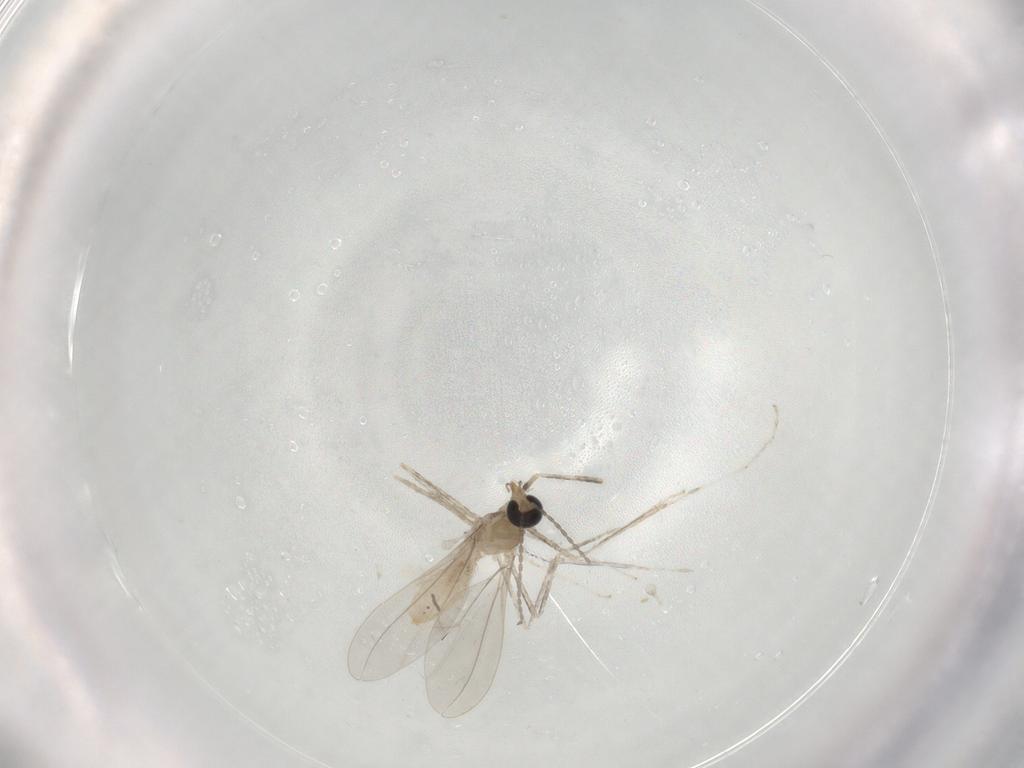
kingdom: Animalia
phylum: Arthropoda
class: Insecta
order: Diptera
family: Cecidomyiidae
